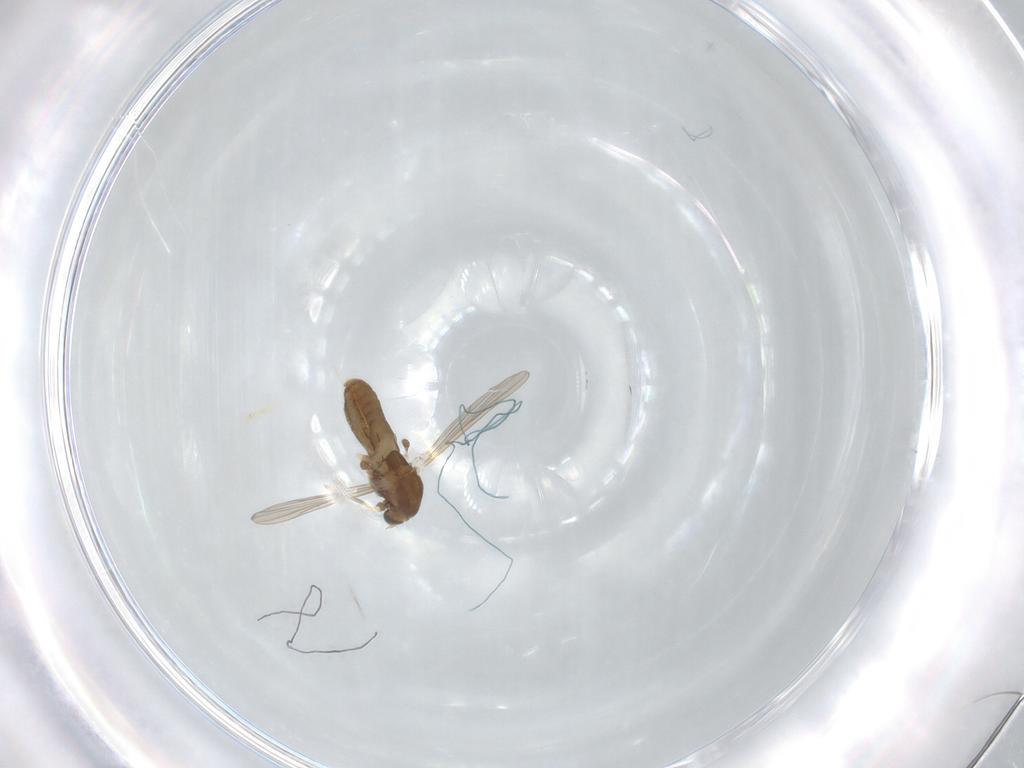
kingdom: Animalia
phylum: Arthropoda
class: Insecta
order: Diptera
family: Chironomidae
